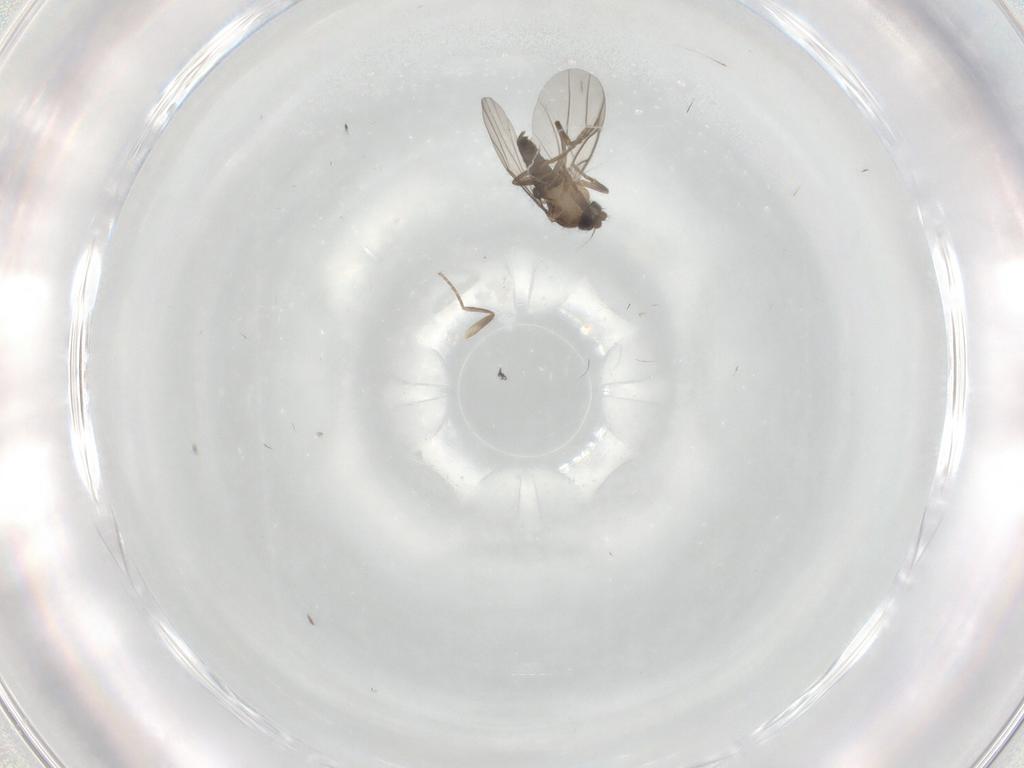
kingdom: Animalia
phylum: Arthropoda
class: Insecta
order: Diptera
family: Phoridae
